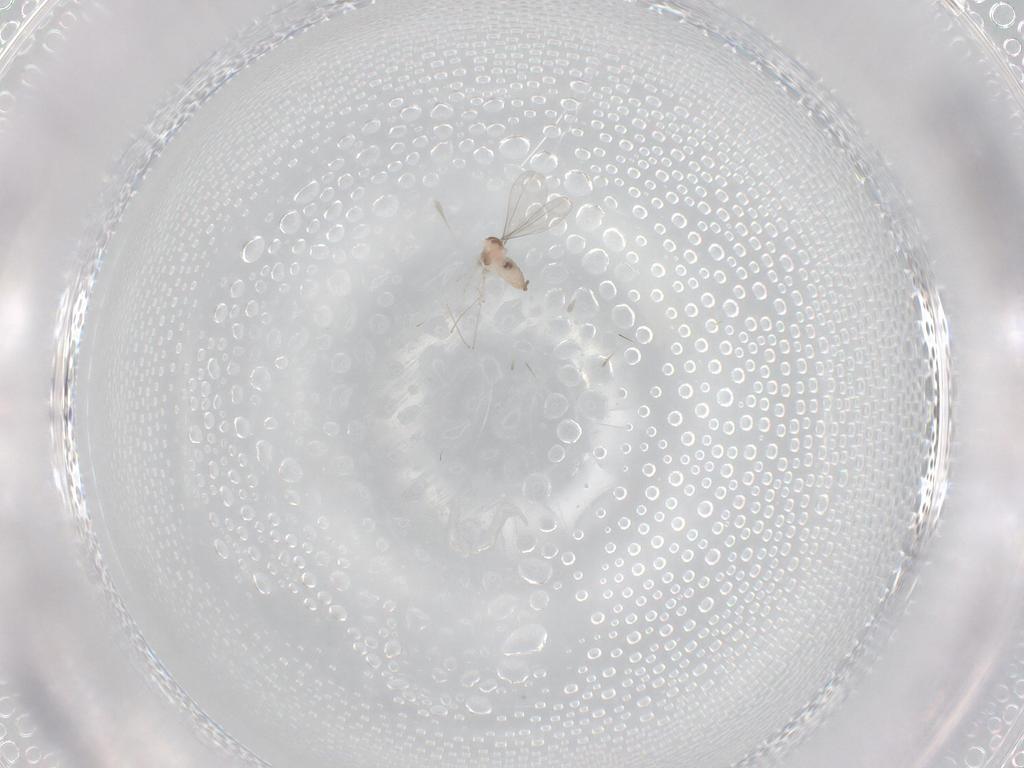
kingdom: Animalia
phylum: Arthropoda
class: Insecta
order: Diptera
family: Cecidomyiidae
